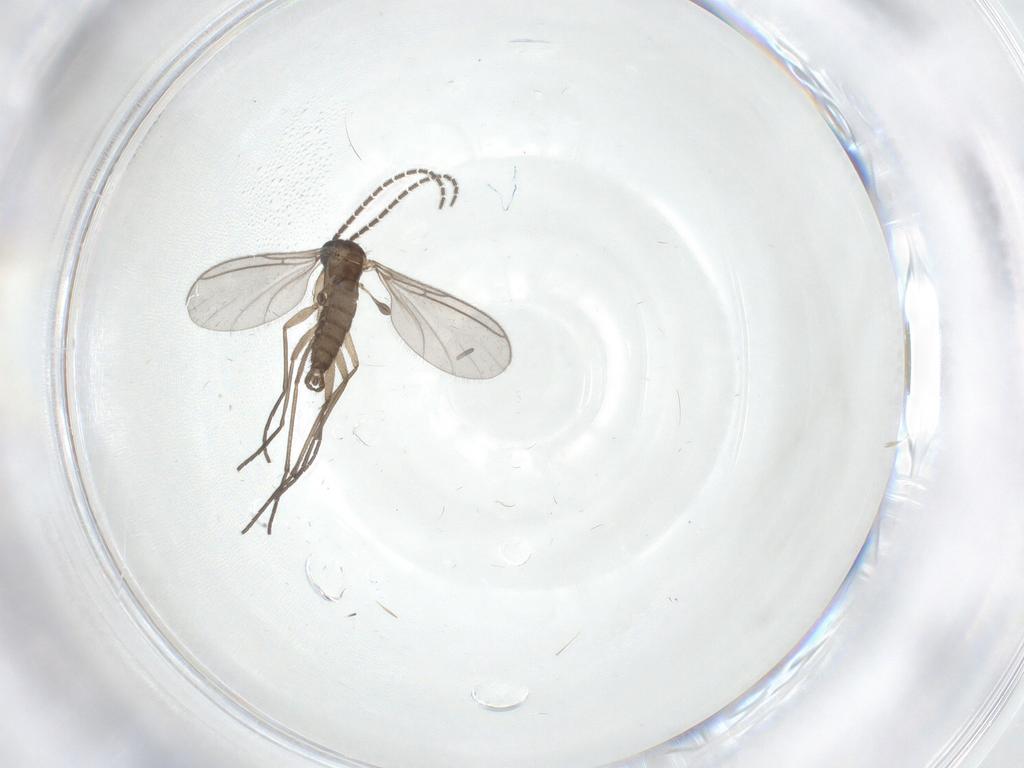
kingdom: Animalia
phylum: Arthropoda
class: Insecta
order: Diptera
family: Sciaridae
